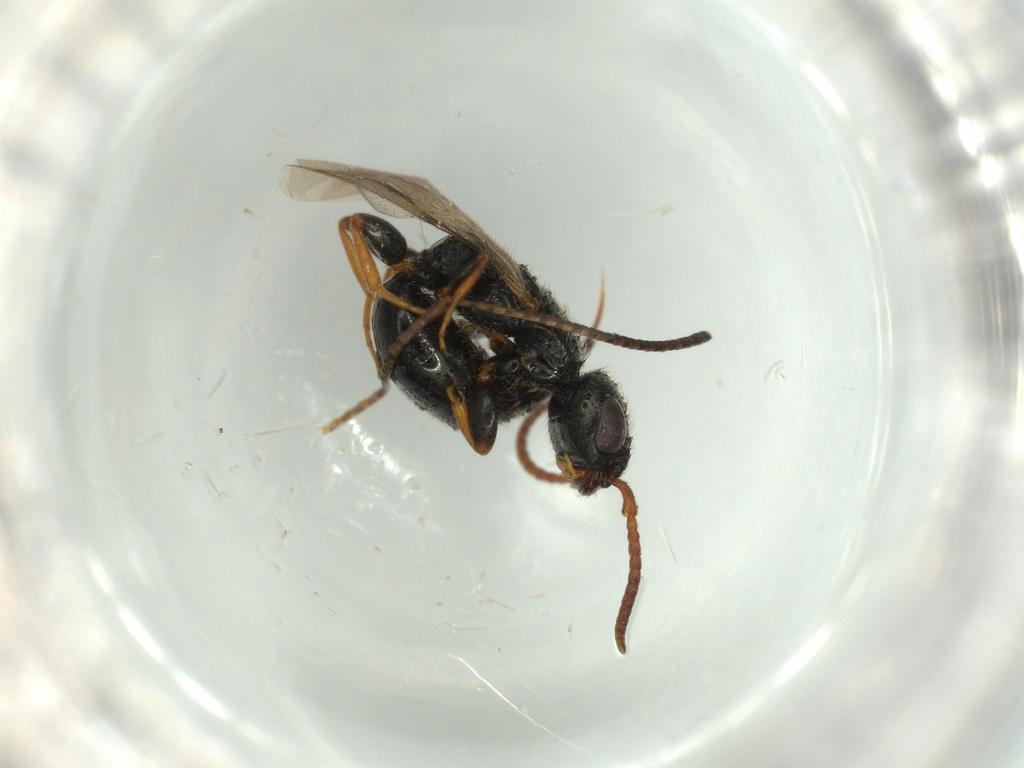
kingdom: Animalia
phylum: Arthropoda
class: Insecta
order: Hymenoptera
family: Bethylidae
